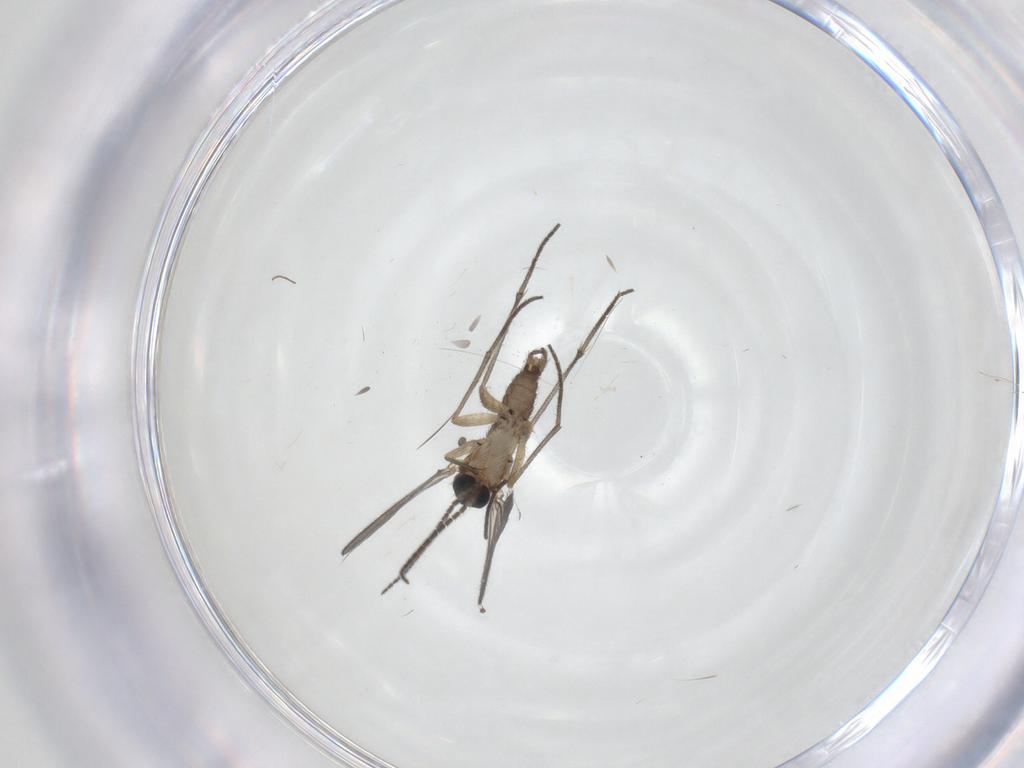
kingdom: Animalia
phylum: Arthropoda
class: Insecta
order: Diptera
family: Sciaridae
